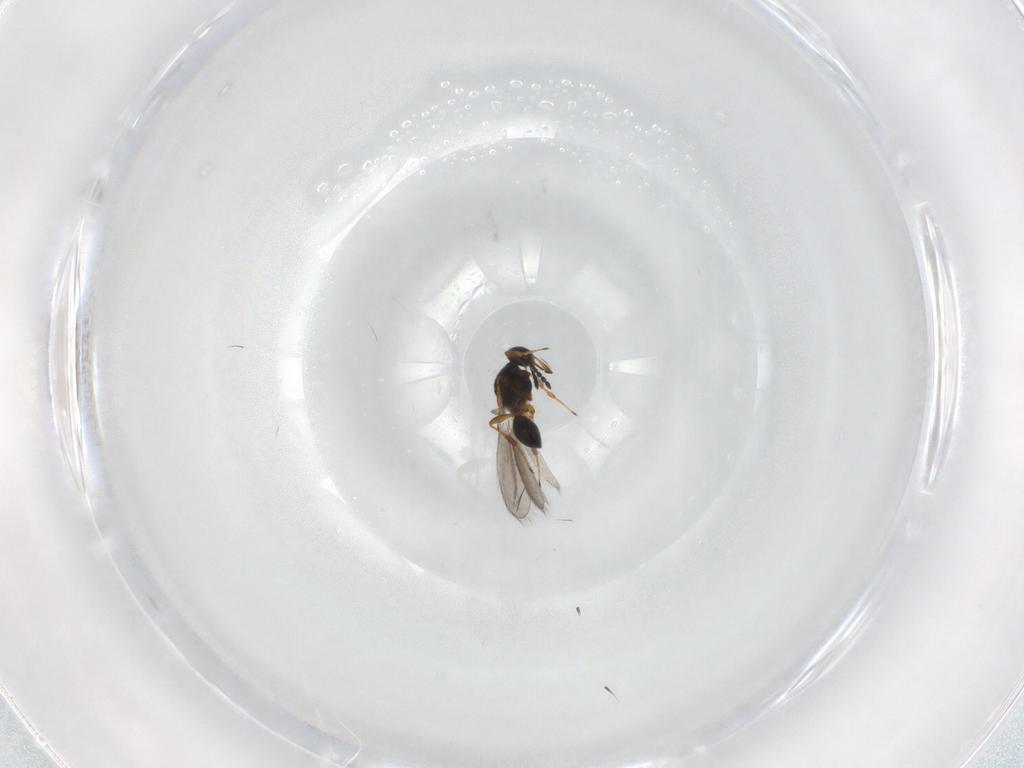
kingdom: Animalia
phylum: Arthropoda
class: Insecta
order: Hymenoptera
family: Platygastridae
